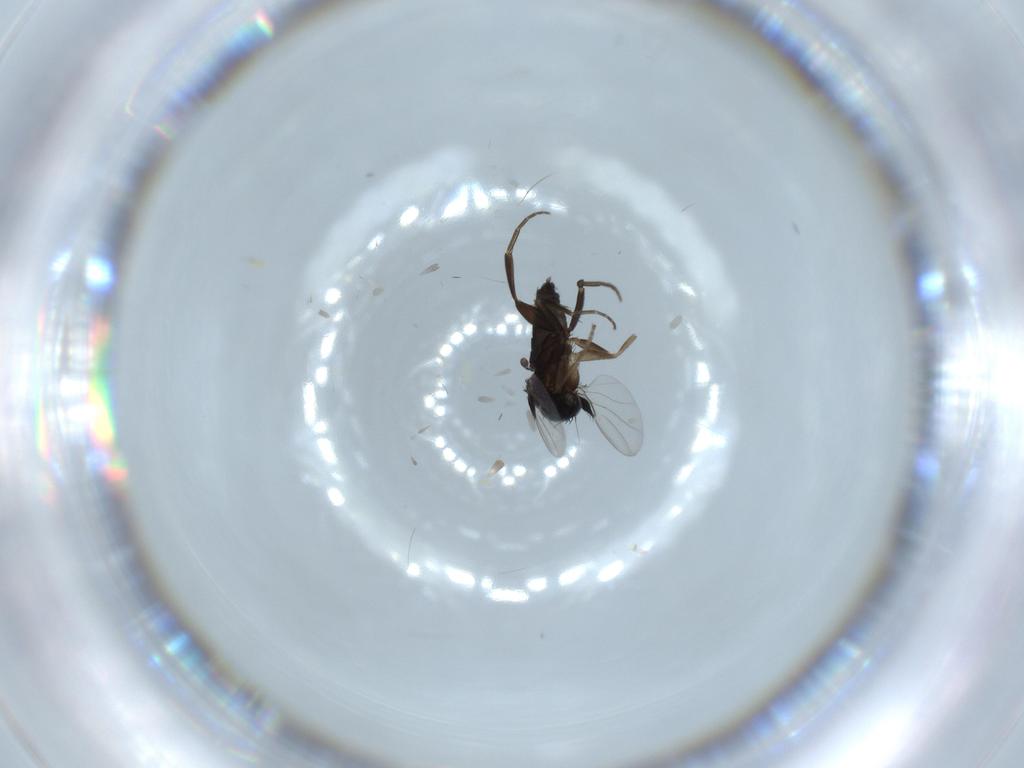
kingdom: Animalia
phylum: Arthropoda
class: Insecta
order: Diptera
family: Phoridae
